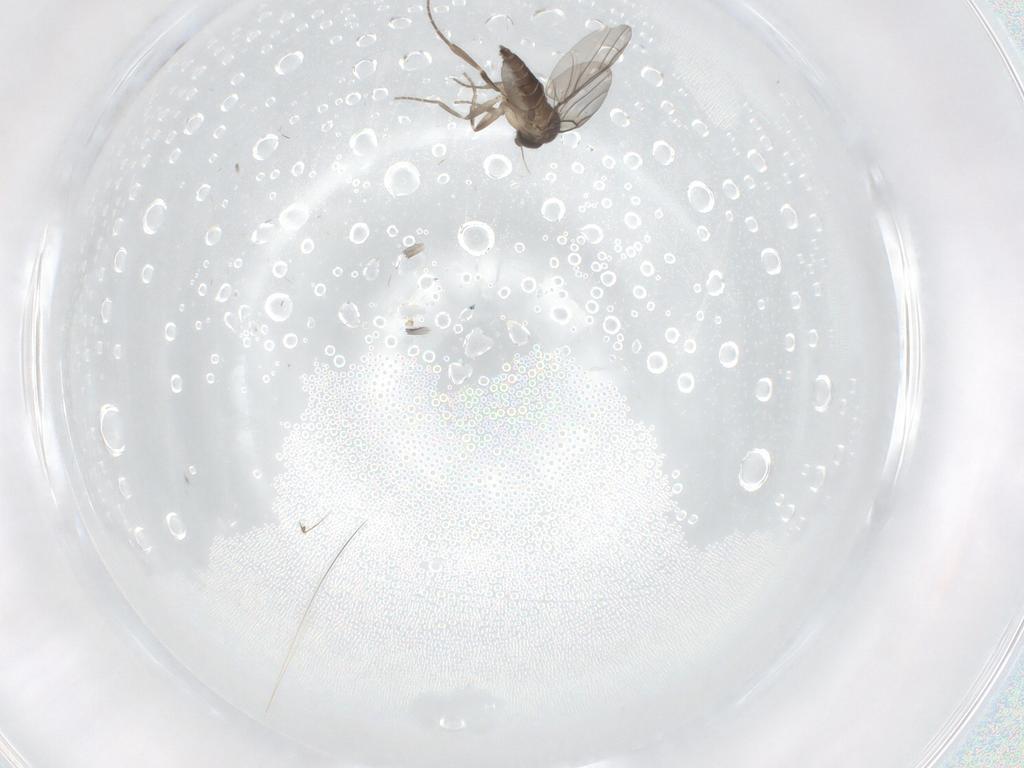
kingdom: Animalia
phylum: Arthropoda
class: Insecta
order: Diptera
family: Phoridae
